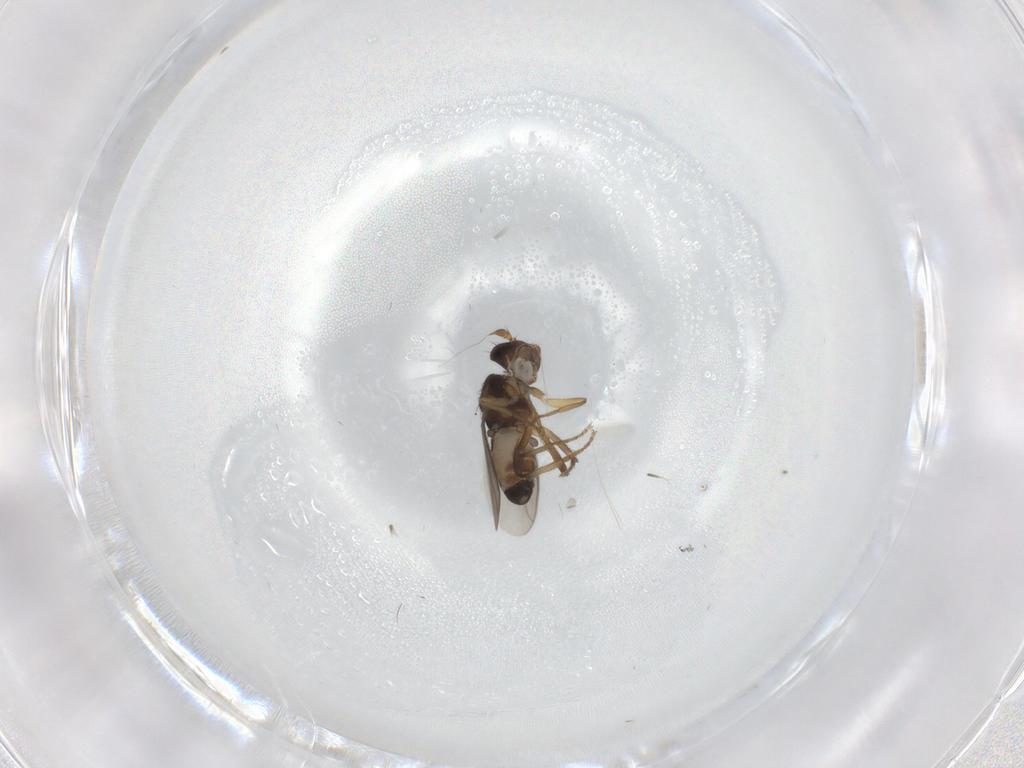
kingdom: Animalia
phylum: Arthropoda
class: Insecta
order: Diptera
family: Sphaeroceridae
